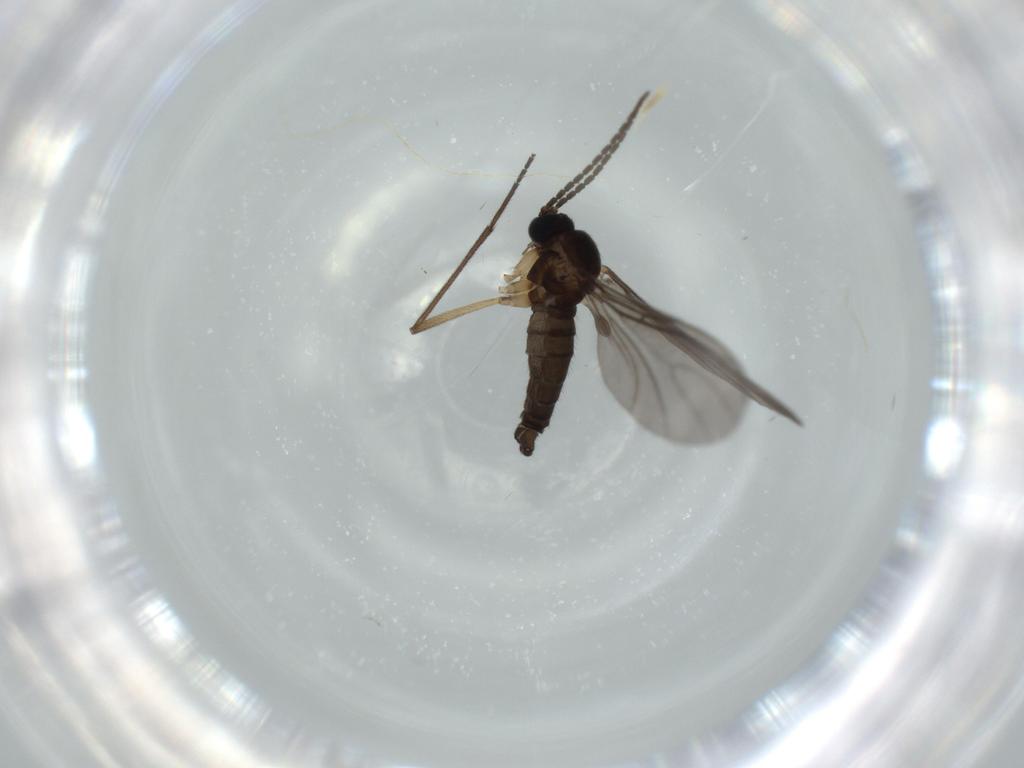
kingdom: Animalia
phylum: Arthropoda
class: Insecta
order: Diptera
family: Sciaridae
